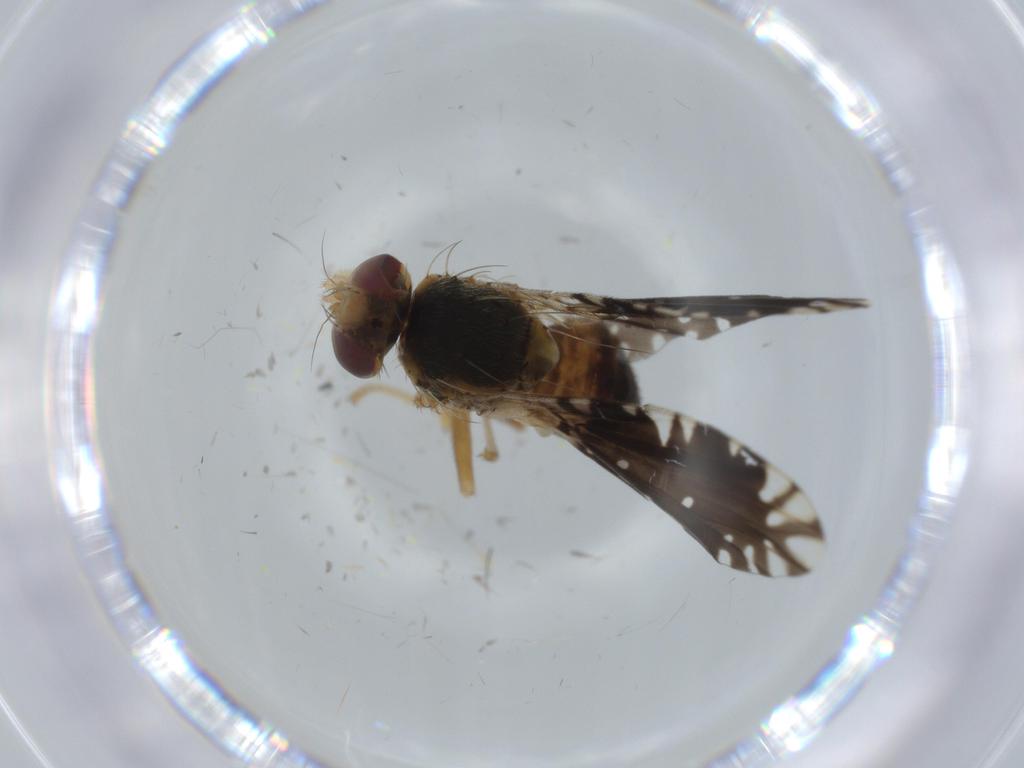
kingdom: Animalia
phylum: Arthropoda
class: Insecta
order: Diptera
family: Tephritidae
